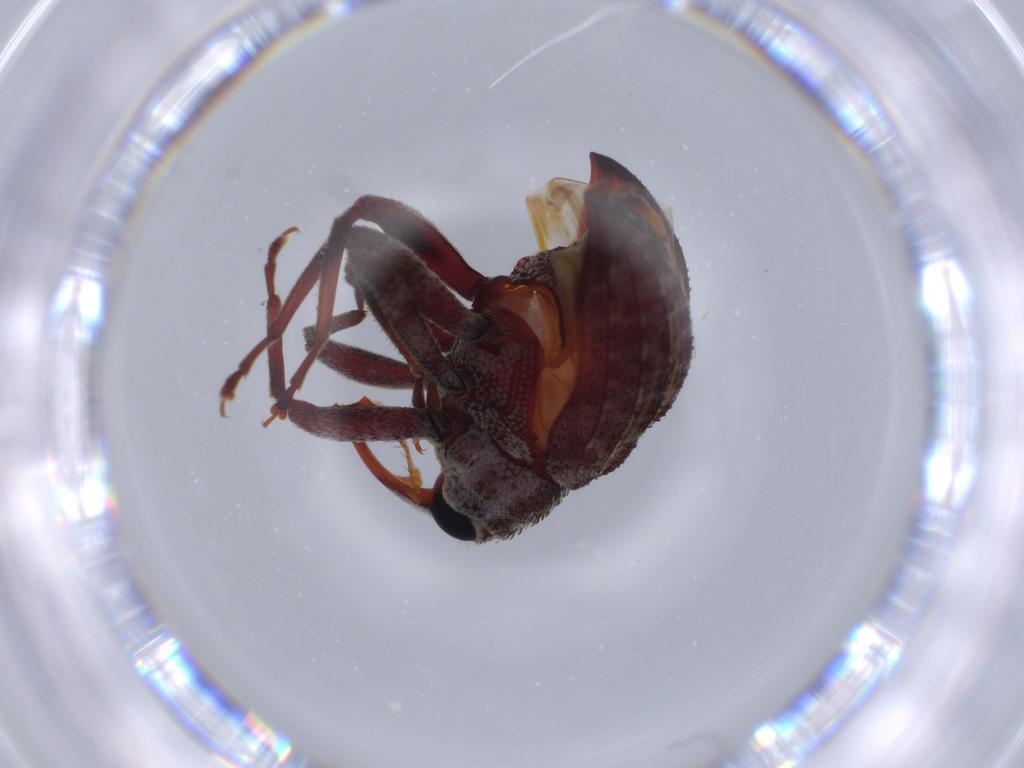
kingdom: Animalia
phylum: Arthropoda
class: Insecta
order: Coleoptera
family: Curculionidae
